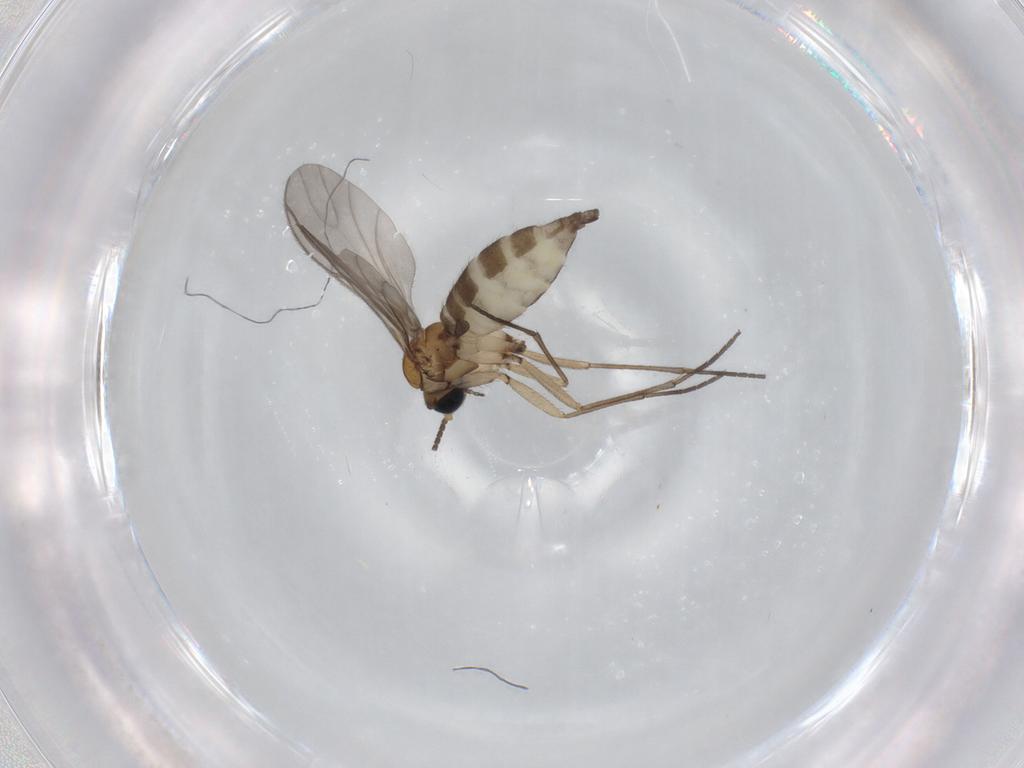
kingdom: Animalia
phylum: Arthropoda
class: Insecta
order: Diptera
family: Sciaridae
